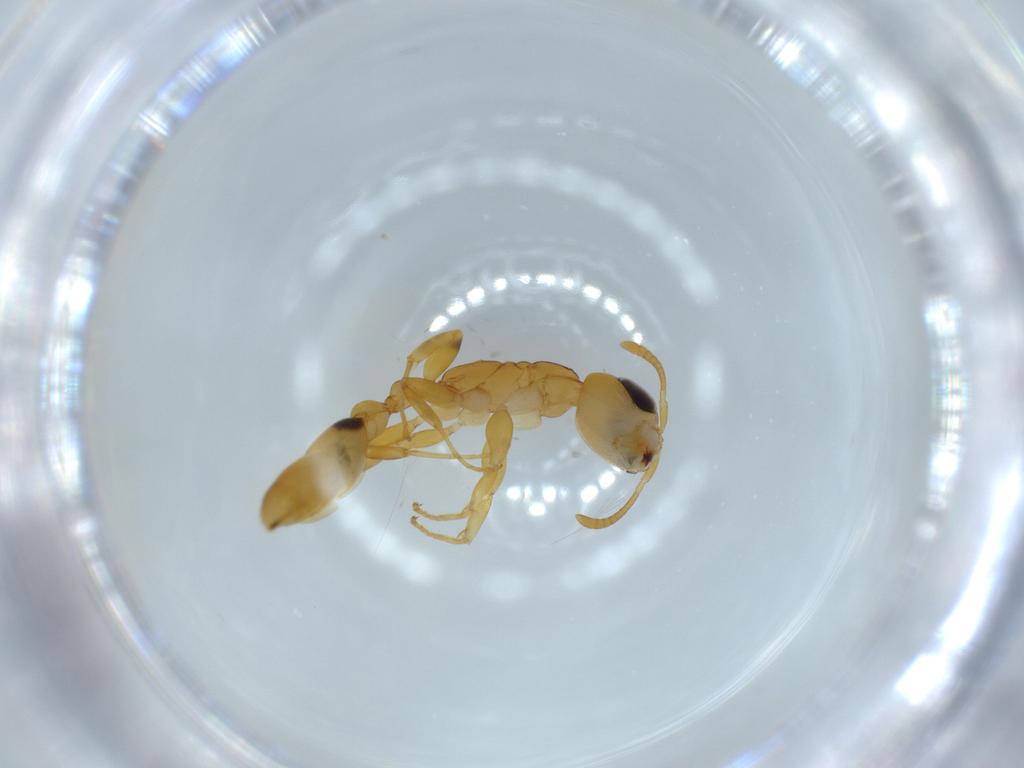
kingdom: Animalia
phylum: Arthropoda
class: Insecta
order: Hymenoptera
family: Formicidae
